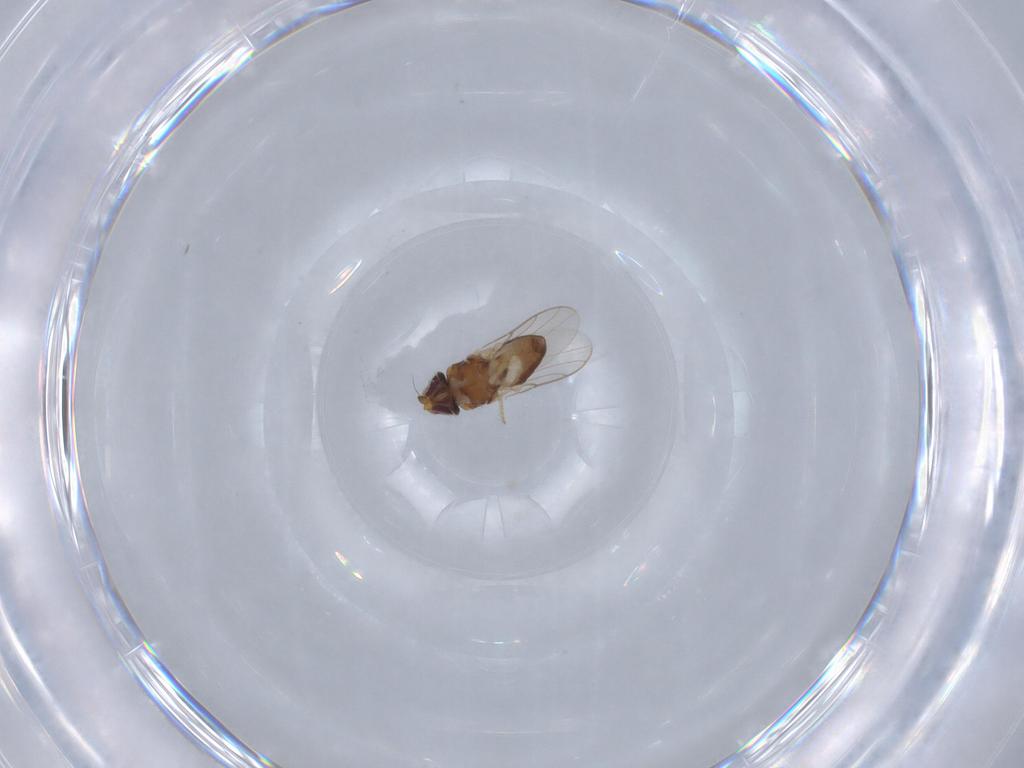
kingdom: Animalia
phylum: Arthropoda
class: Insecta
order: Diptera
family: Chloropidae
